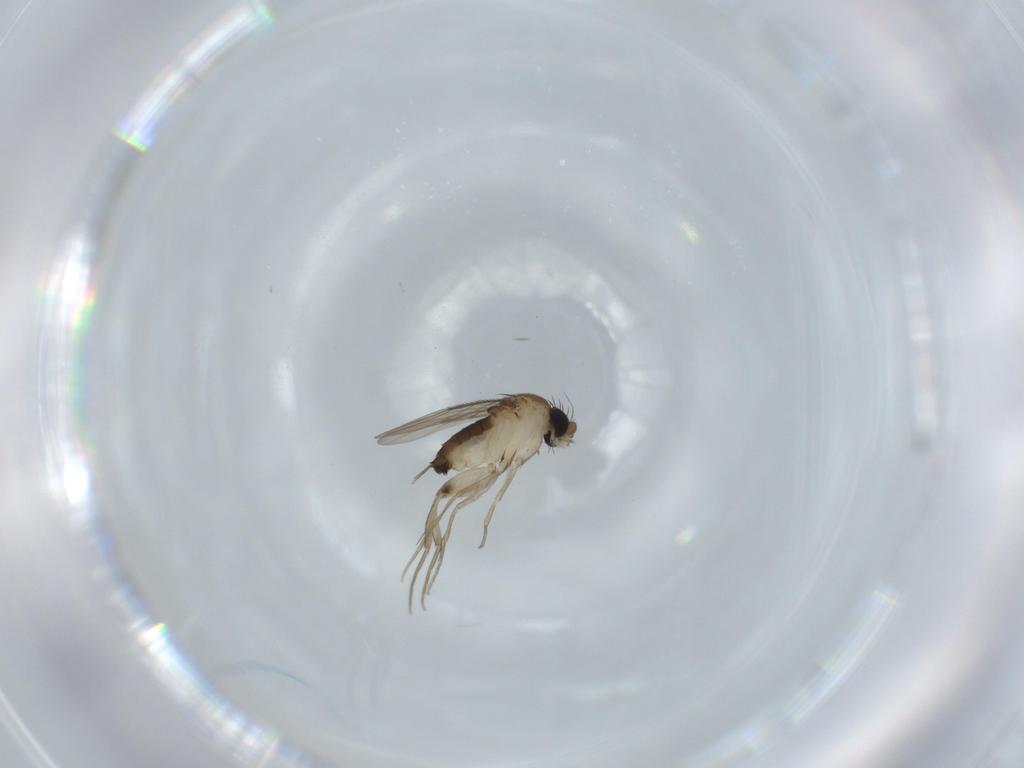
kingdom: Animalia
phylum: Arthropoda
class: Insecta
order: Diptera
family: Phoridae
